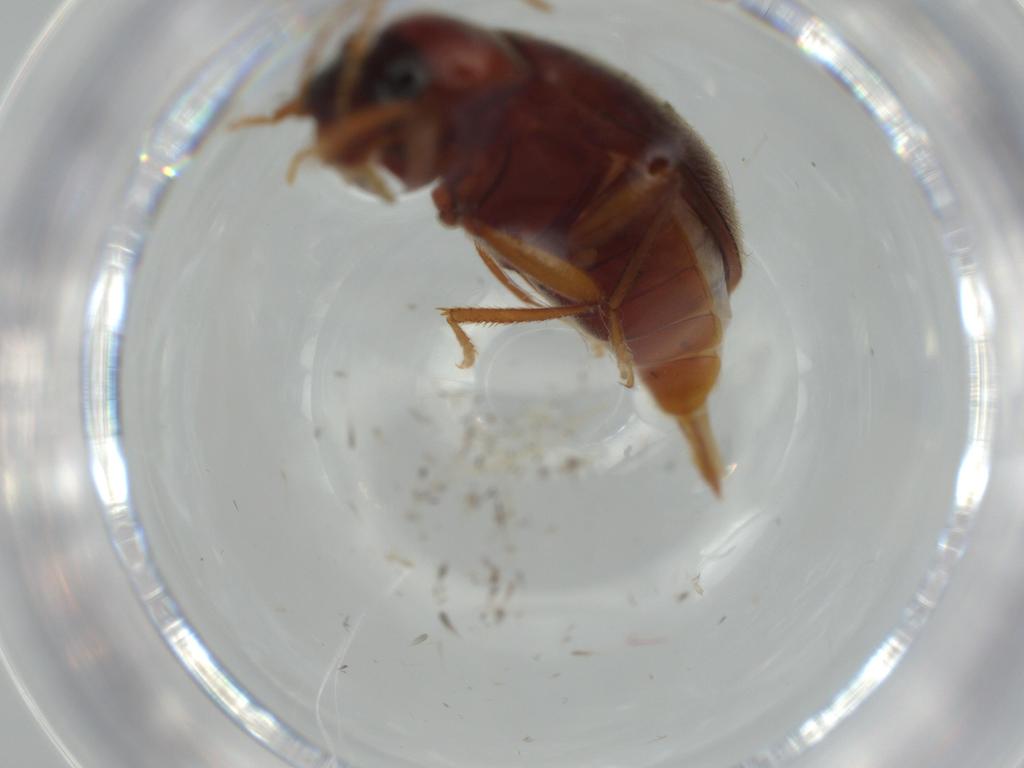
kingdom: Animalia
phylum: Arthropoda
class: Insecta
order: Coleoptera
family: Ptilodactylidae
